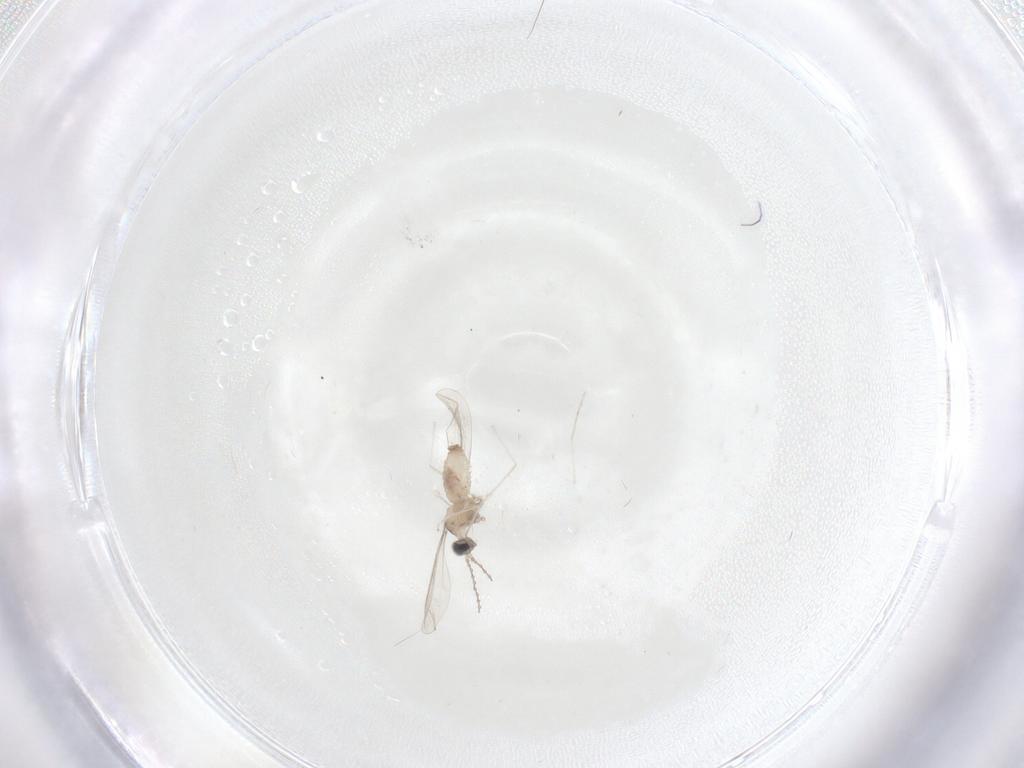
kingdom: Animalia
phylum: Arthropoda
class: Insecta
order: Diptera
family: Cecidomyiidae
